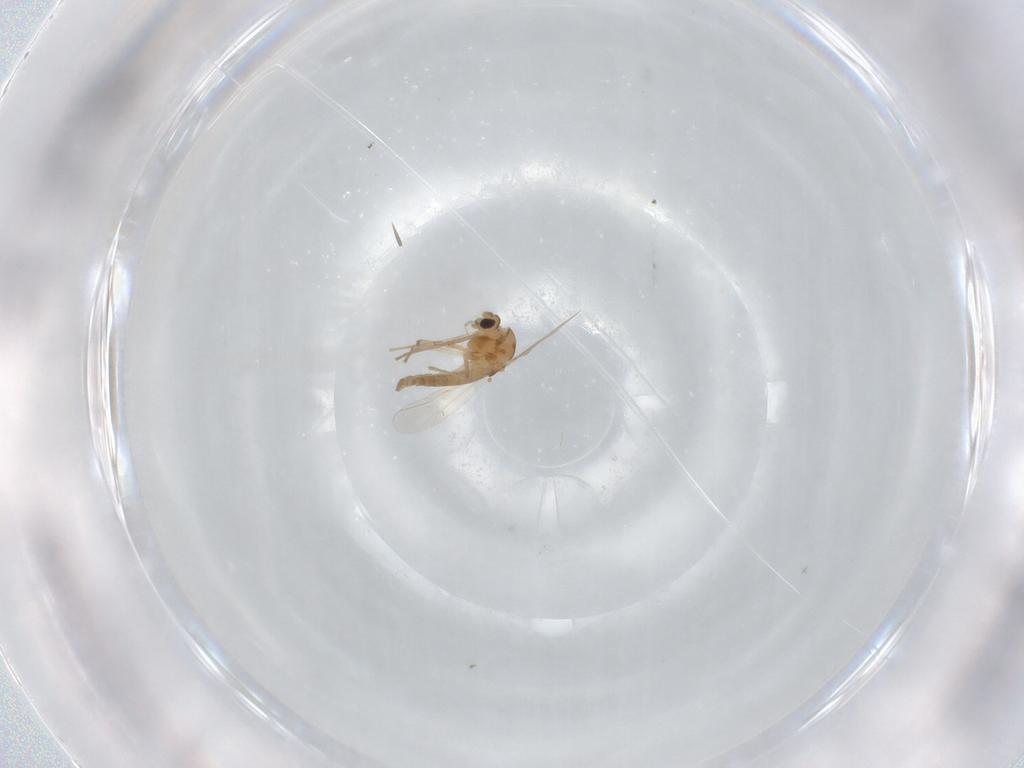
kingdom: Animalia
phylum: Arthropoda
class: Insecta
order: Diptera
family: Chironomidae
